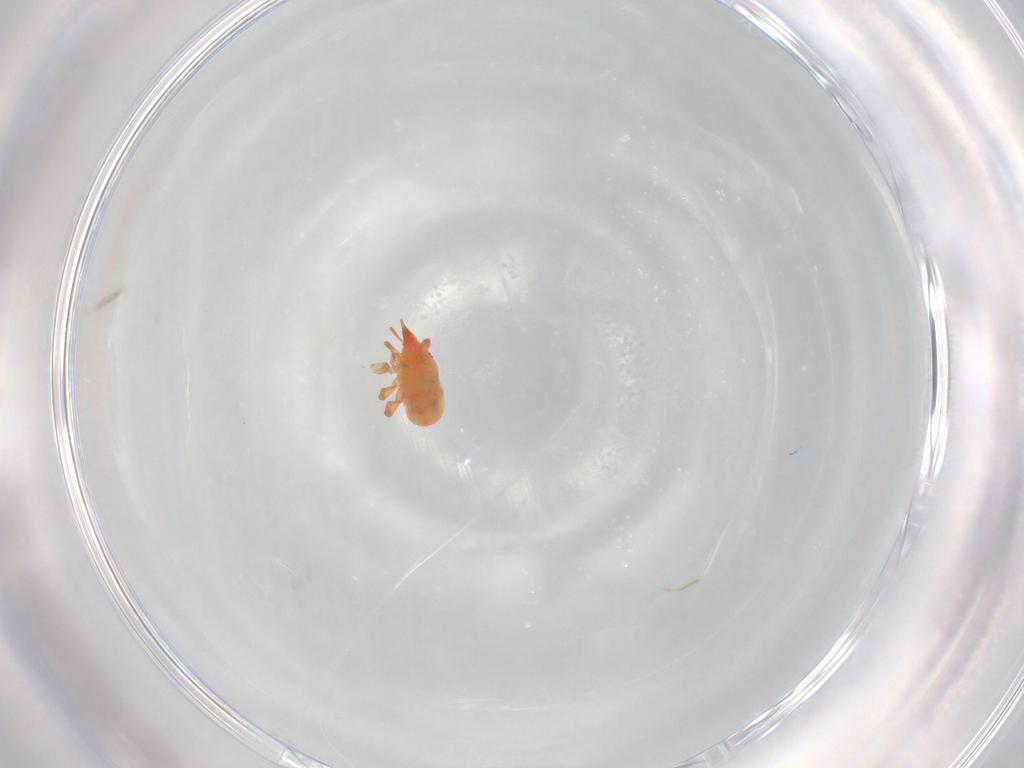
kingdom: Animalia
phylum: Arthropoda
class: Arachnida
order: Trombidiformes
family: Bdellidae
